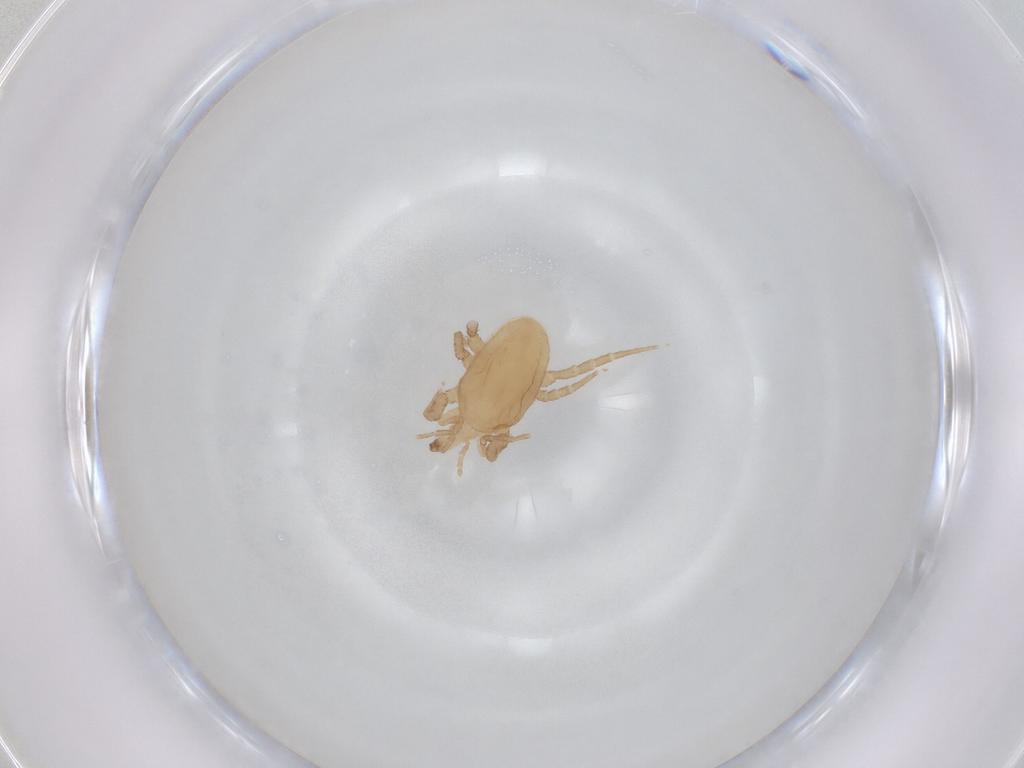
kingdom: Animalia
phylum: Arthropoda
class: Arachnida
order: Mesostigmata
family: Macrochelidae
